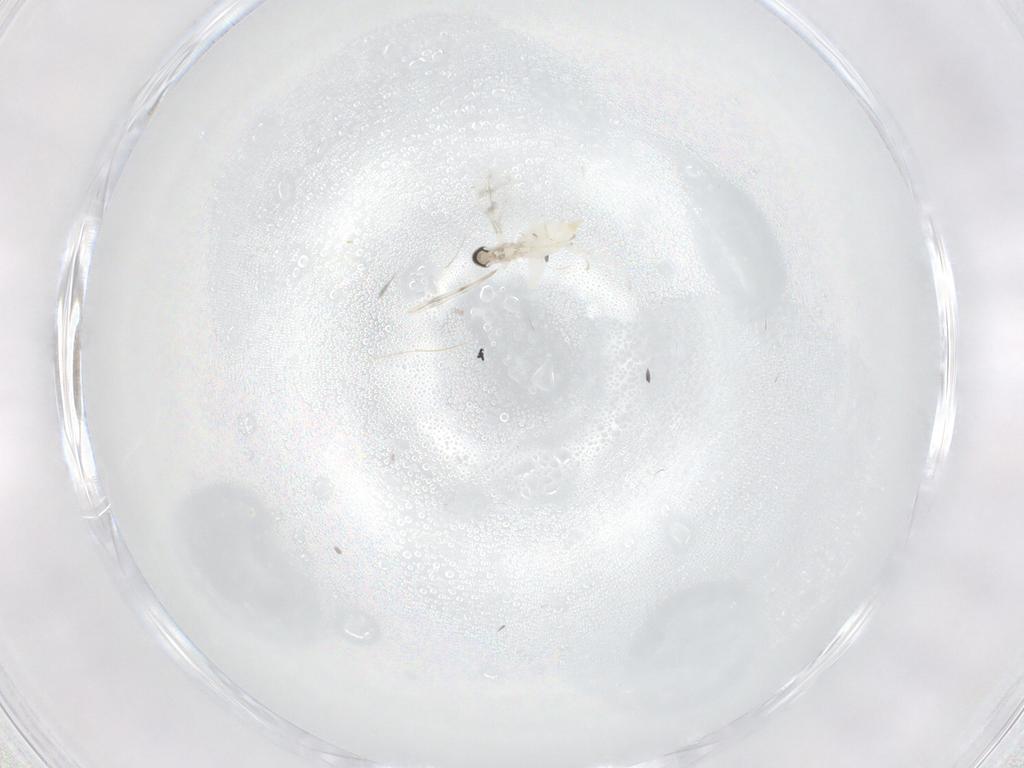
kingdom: Animalia
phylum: Arthropoda
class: Insecta
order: Diptera
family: Cecidomyiidae
